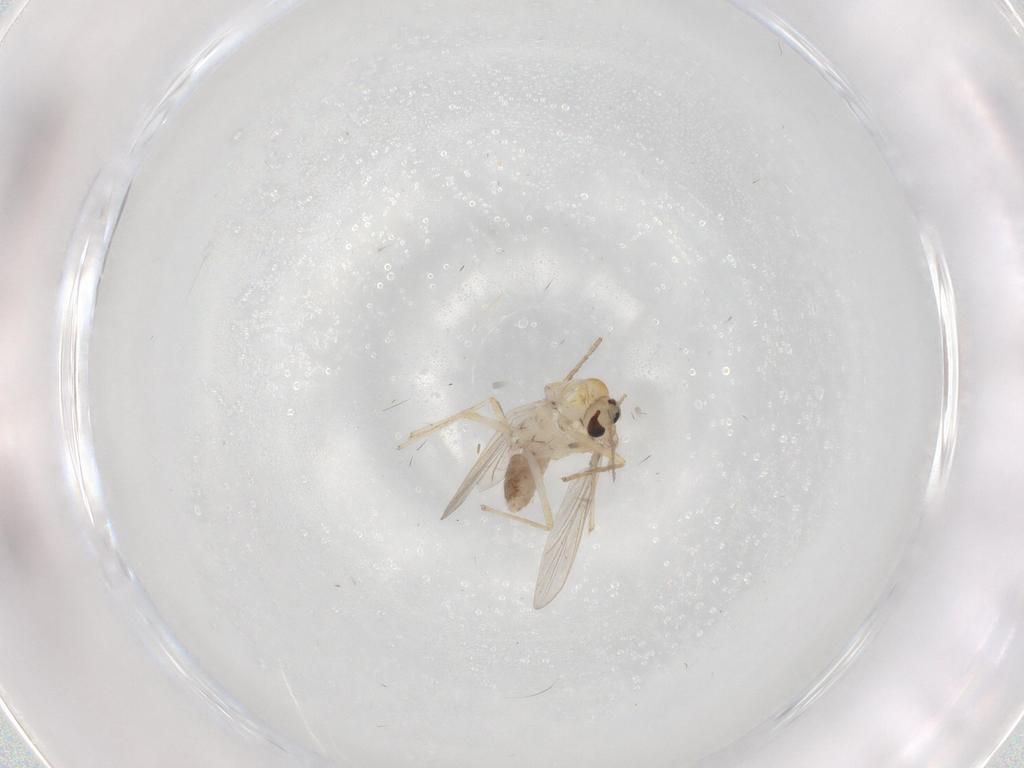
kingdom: Animalia
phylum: Arthropoda
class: Insecta
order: Diptera
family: Chironomidae
